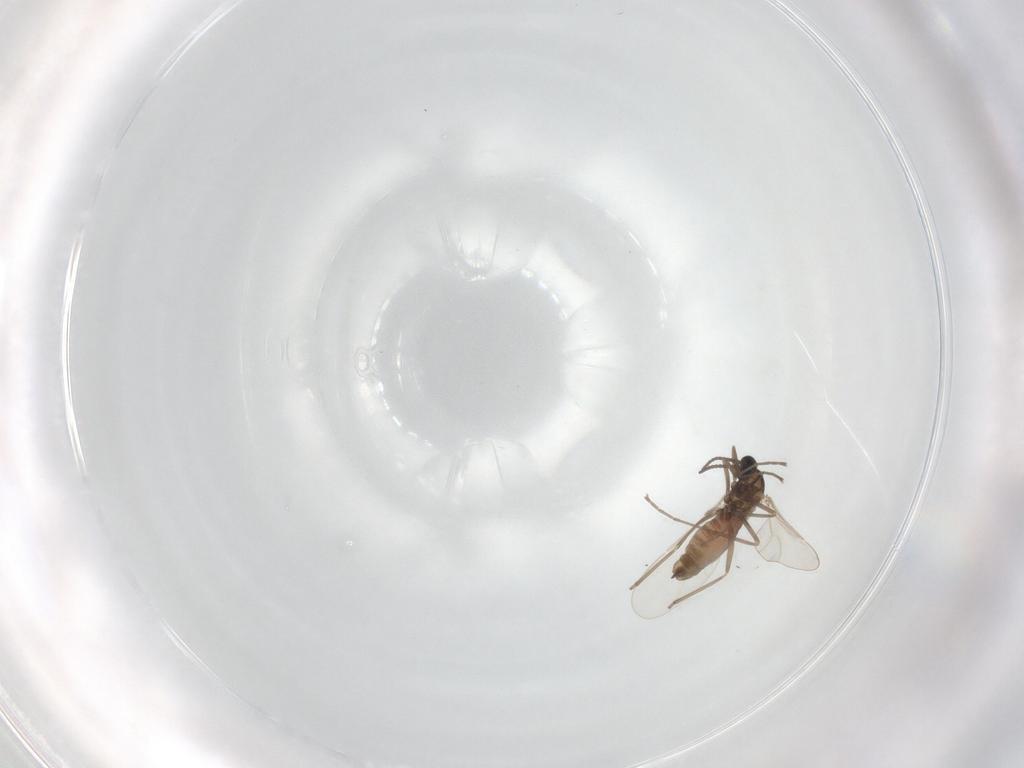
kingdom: Animalia
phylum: Arthropoda
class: Insecta
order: Diptera
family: Cecidomyiidae
